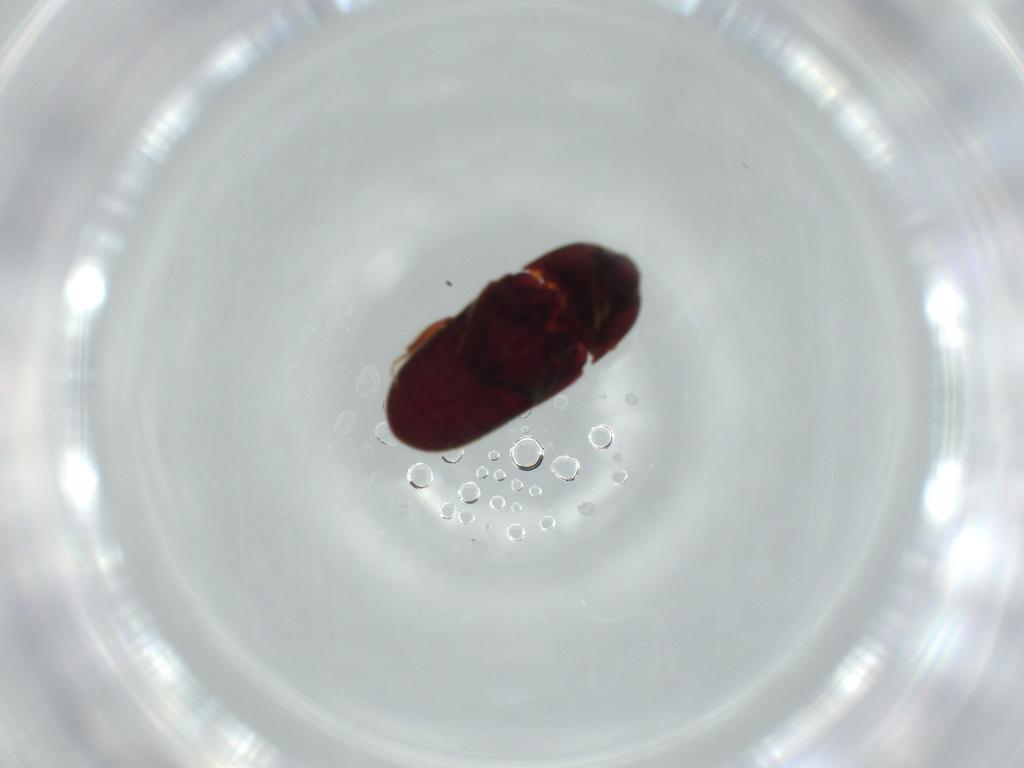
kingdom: Animalia
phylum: Arthropoda
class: Insecta
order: Coleoptera
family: Throscidae
